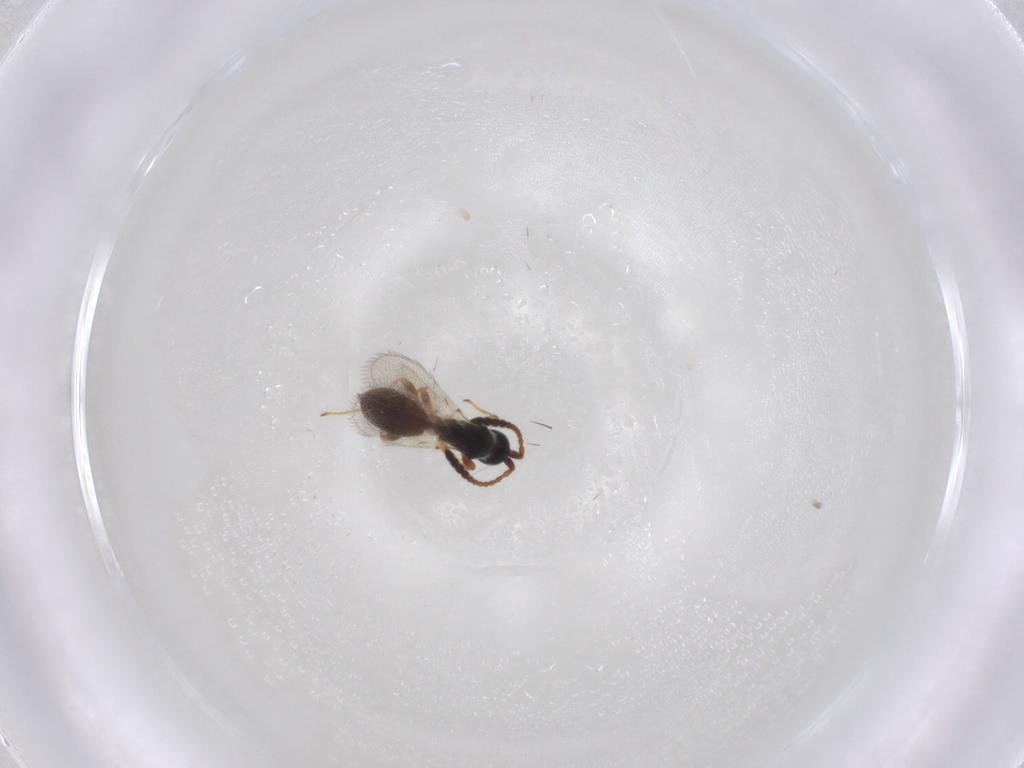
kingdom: Animalia
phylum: Arthropoda
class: Insecta
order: Hymenoptera
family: Diapriidae
